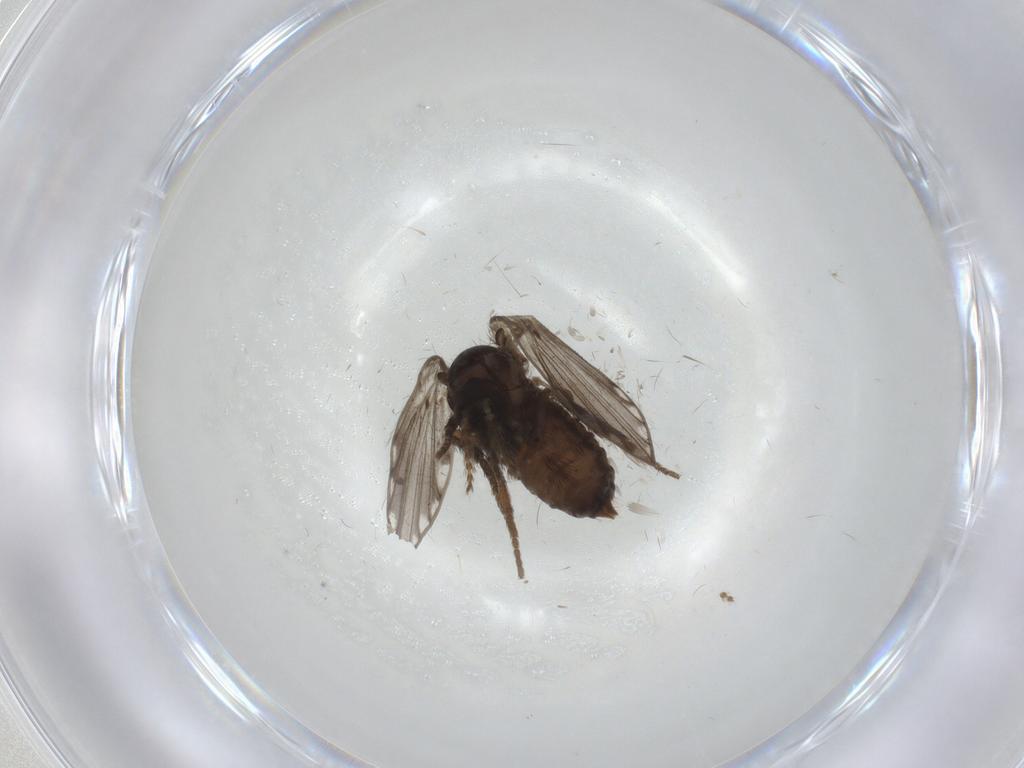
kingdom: Animalia
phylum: Arthropoda
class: Insecta
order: Diptera
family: Psychodidae
